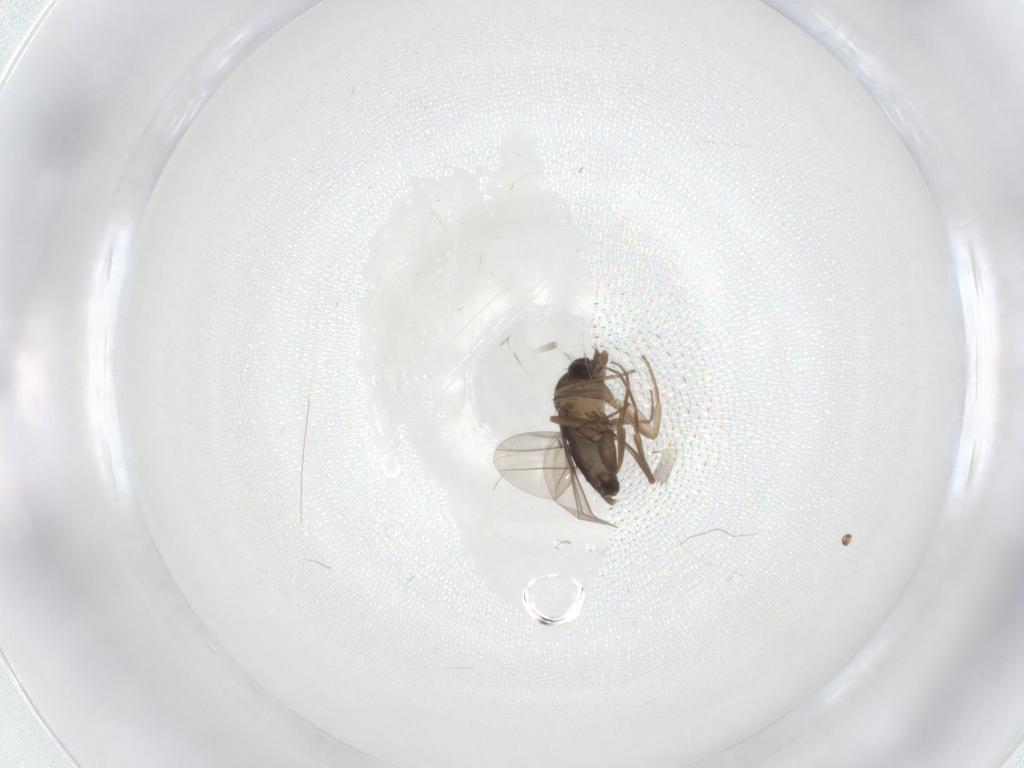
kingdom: Animalia
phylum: Arthropoda
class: Insecta
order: Diptera
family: Phoridae
